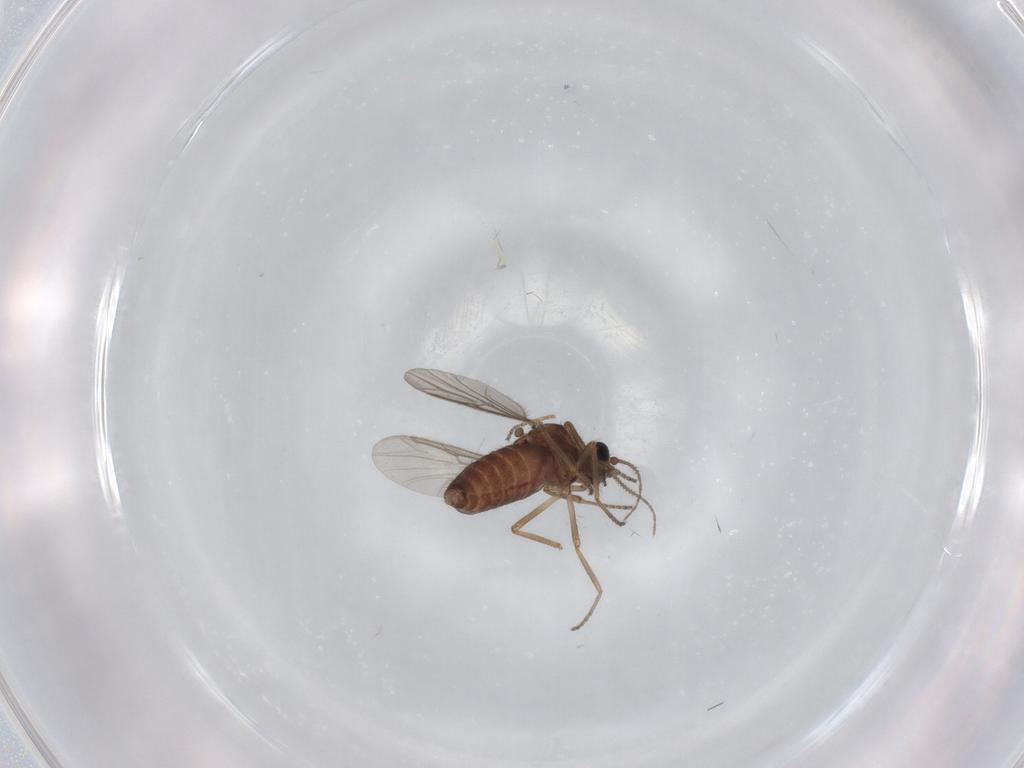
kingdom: Animalia
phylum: Arthropoda
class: Insecta
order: Diptera
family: Ceratopogonidae
